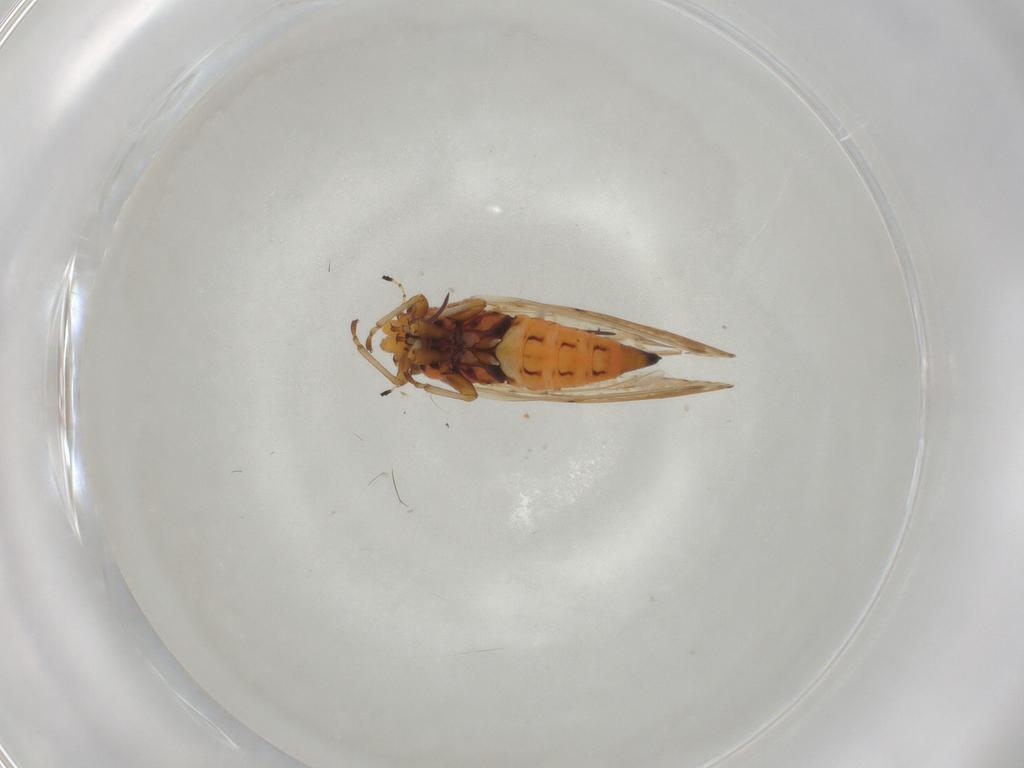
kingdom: Animalia
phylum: Arthropoda
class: Insecta
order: Hemiptera
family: Cicadellidae
